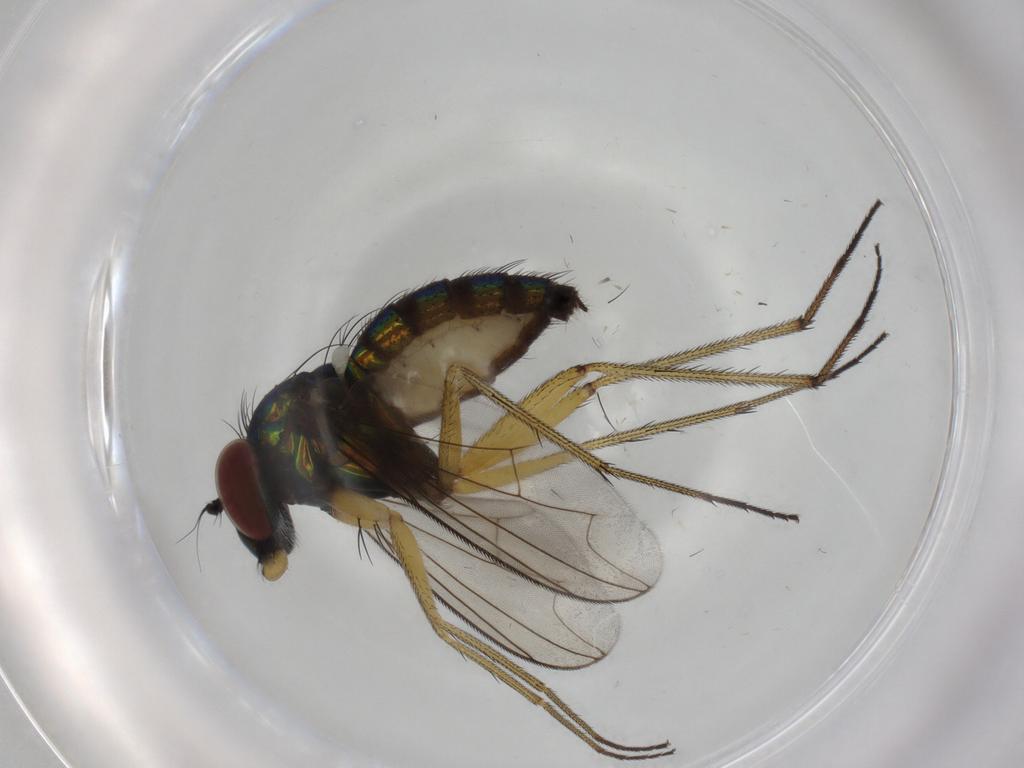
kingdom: Animalia
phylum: Arthropoda
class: Insecta
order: Diptera
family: Dolichopodidae
